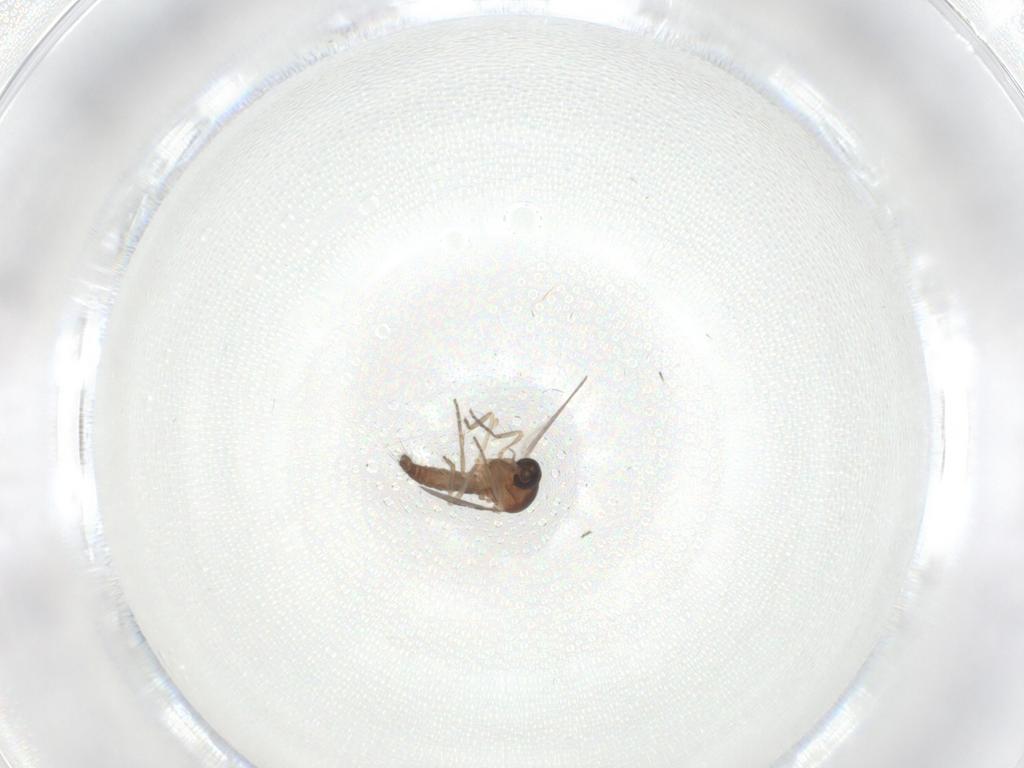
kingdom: Animalia
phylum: Arthropoda
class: Insecta
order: Diptera
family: Ceratopogonidae
